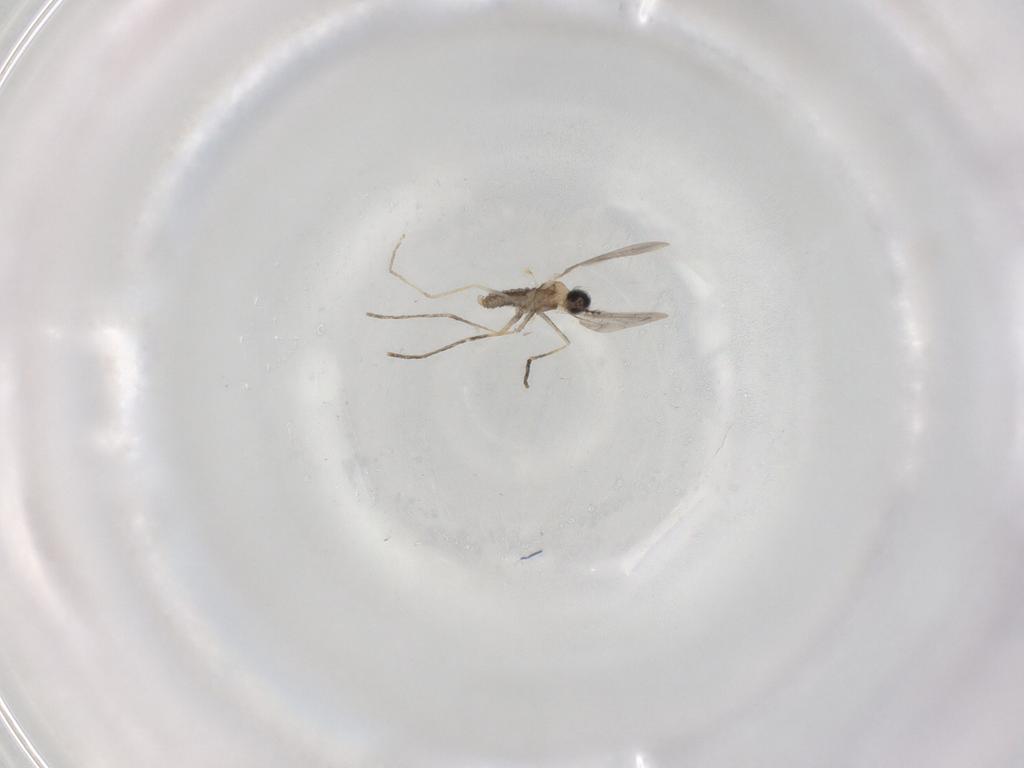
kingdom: Animalia
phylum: Arthropoda
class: Insecta
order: Diptera
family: Cecidomyiidae
